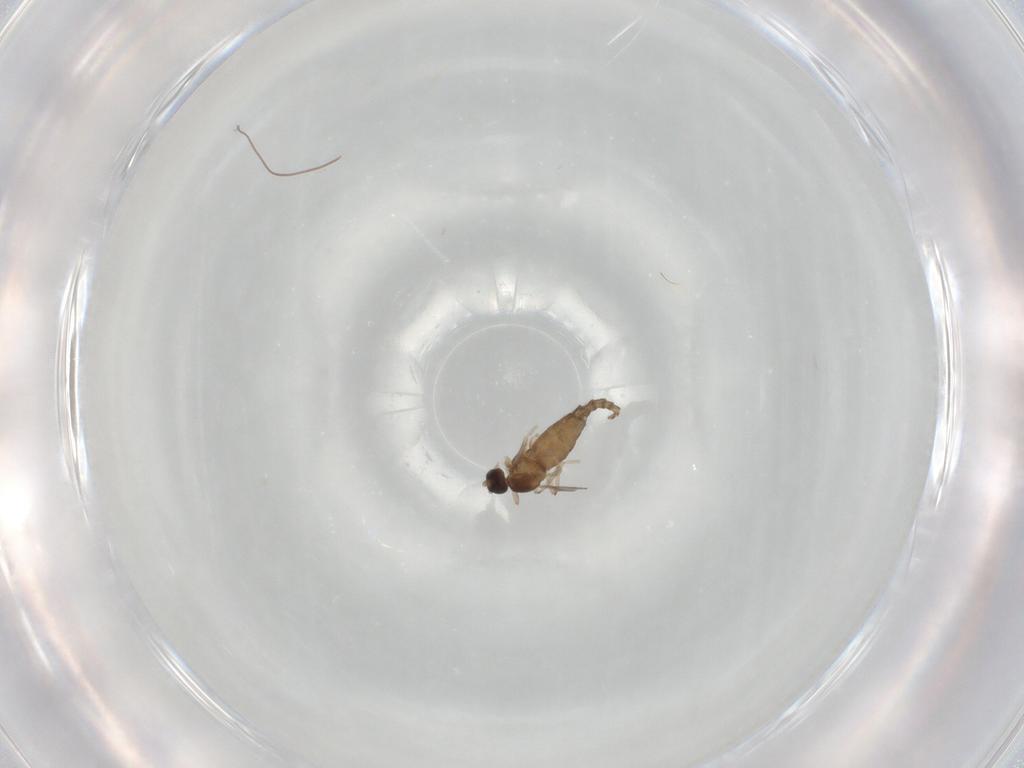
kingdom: Animalia
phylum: Arthropoda
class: Insecta
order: Diptera
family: Cecidomyiidae
